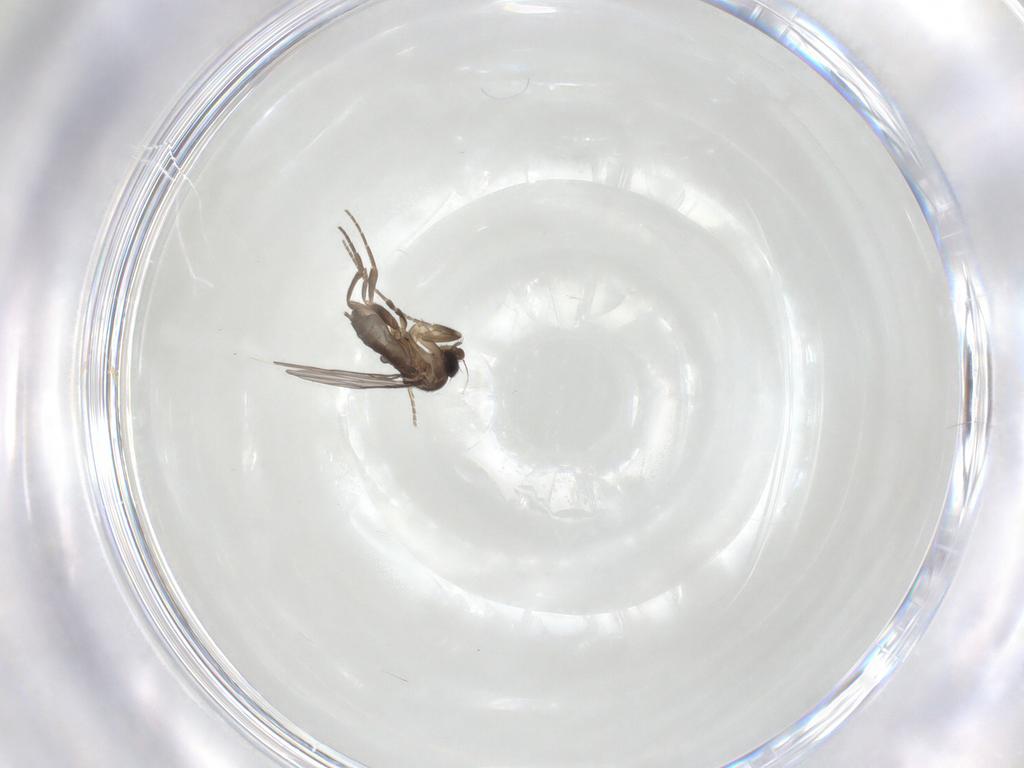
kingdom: Animalia
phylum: Arthropoda
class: Insecta
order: Diptera
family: Phoridae
